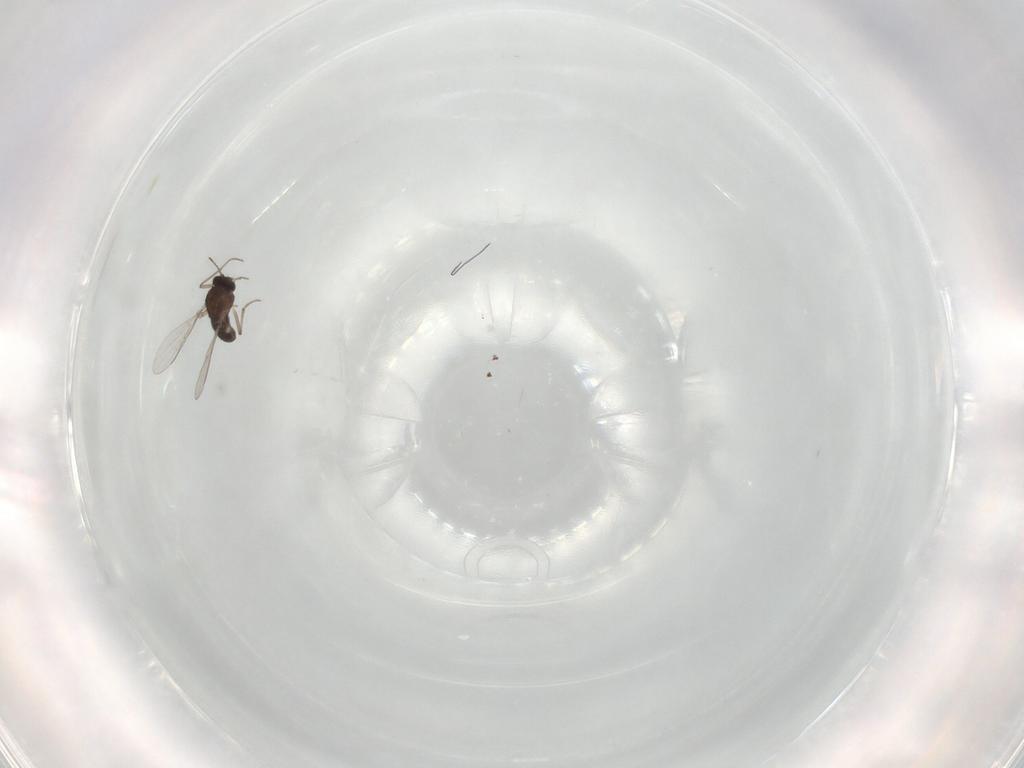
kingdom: Animalia
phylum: Arthropoda
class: Insecta
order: Diptera
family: Chironomidae
